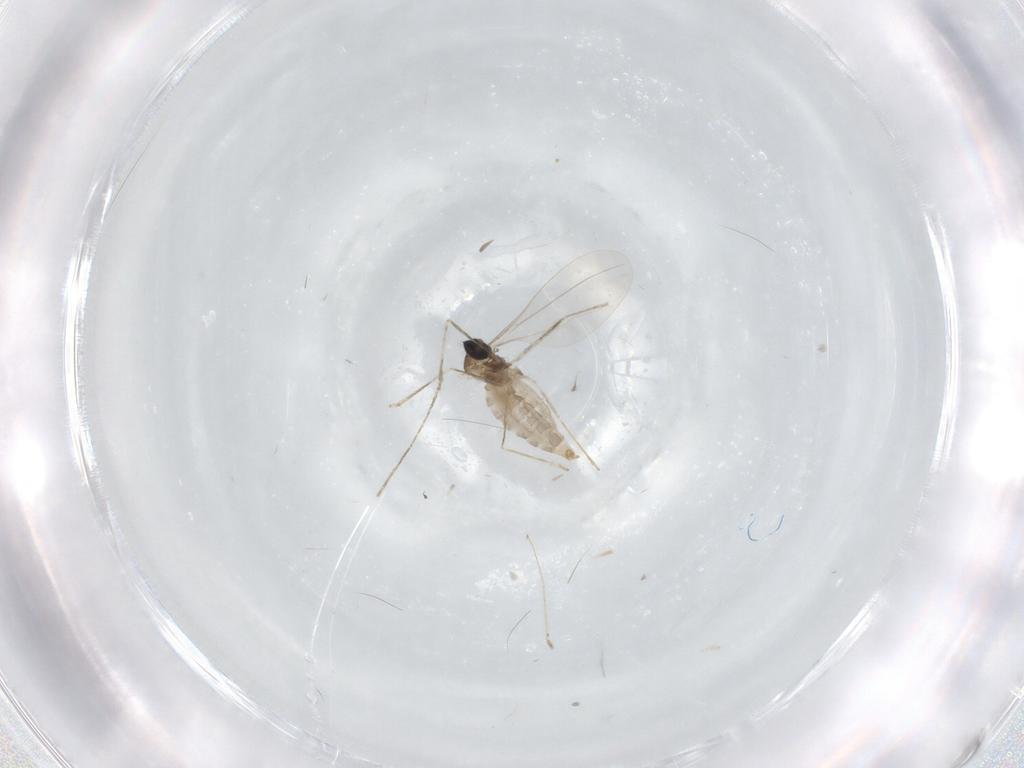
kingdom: Animalia
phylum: Arthropoda
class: Insecta
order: Diptera
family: Cecidomyiidae
